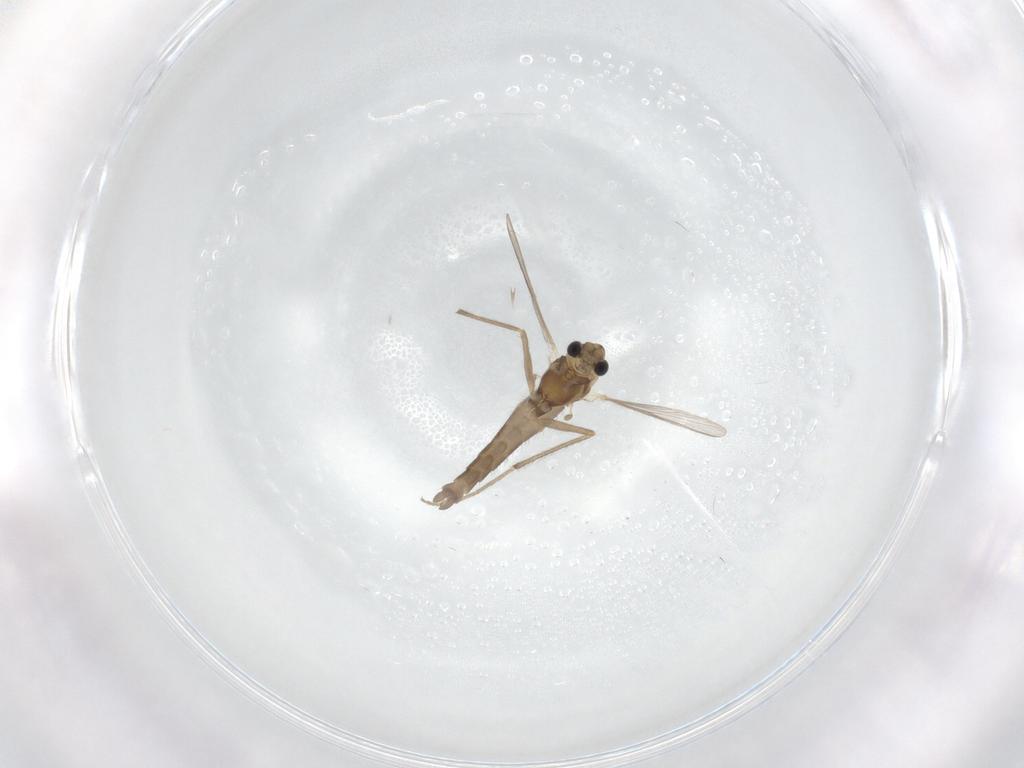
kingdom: Animalia
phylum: Arthropoda
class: Insecta
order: Diptera
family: Chironomidae
